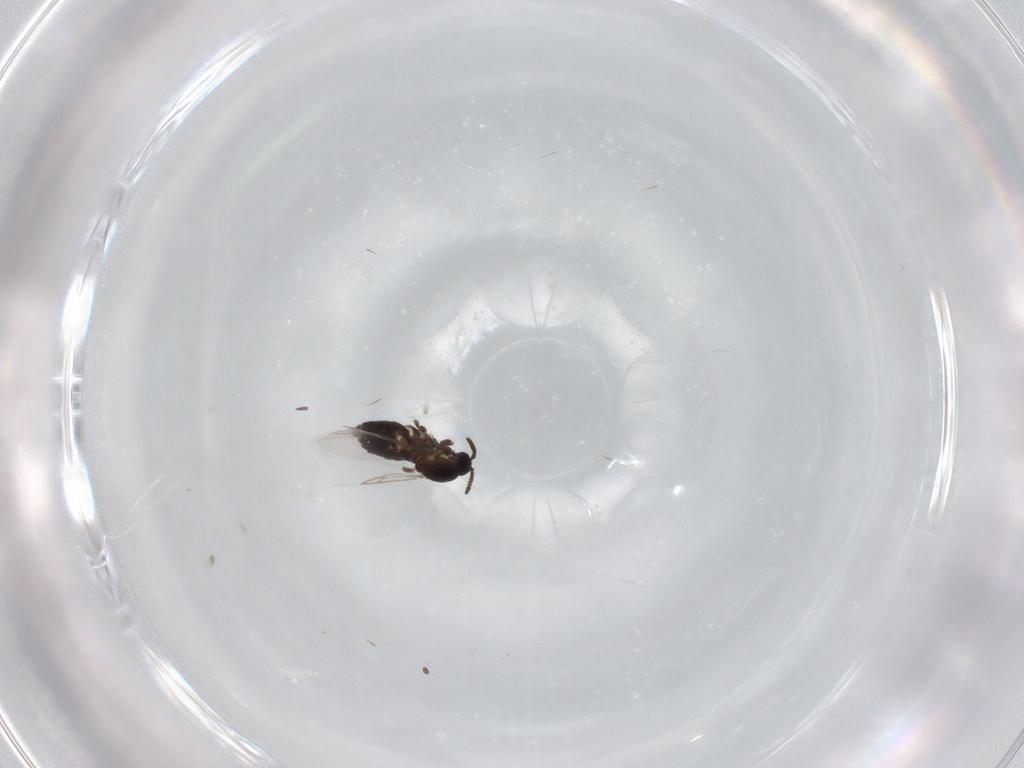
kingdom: Animalia
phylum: Arthropoda
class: Insecta
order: Diptera
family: Scatopsidae
